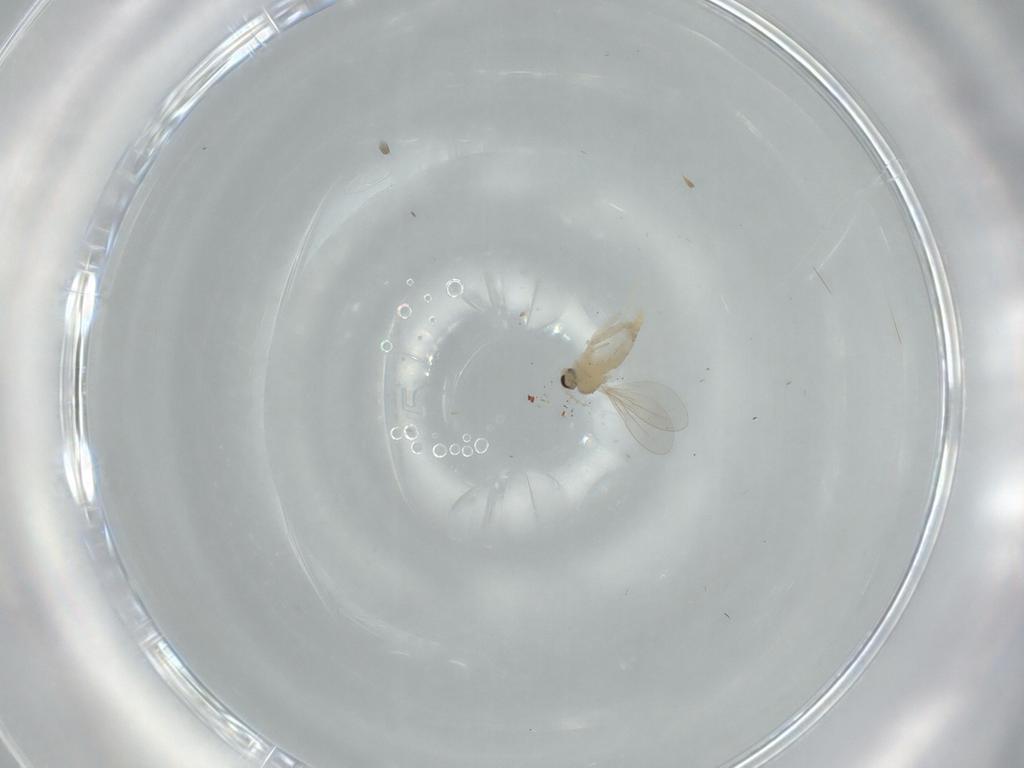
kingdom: Animalia
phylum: Arthropoda
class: Insecta
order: Diptera
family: Cecidomyiidae
